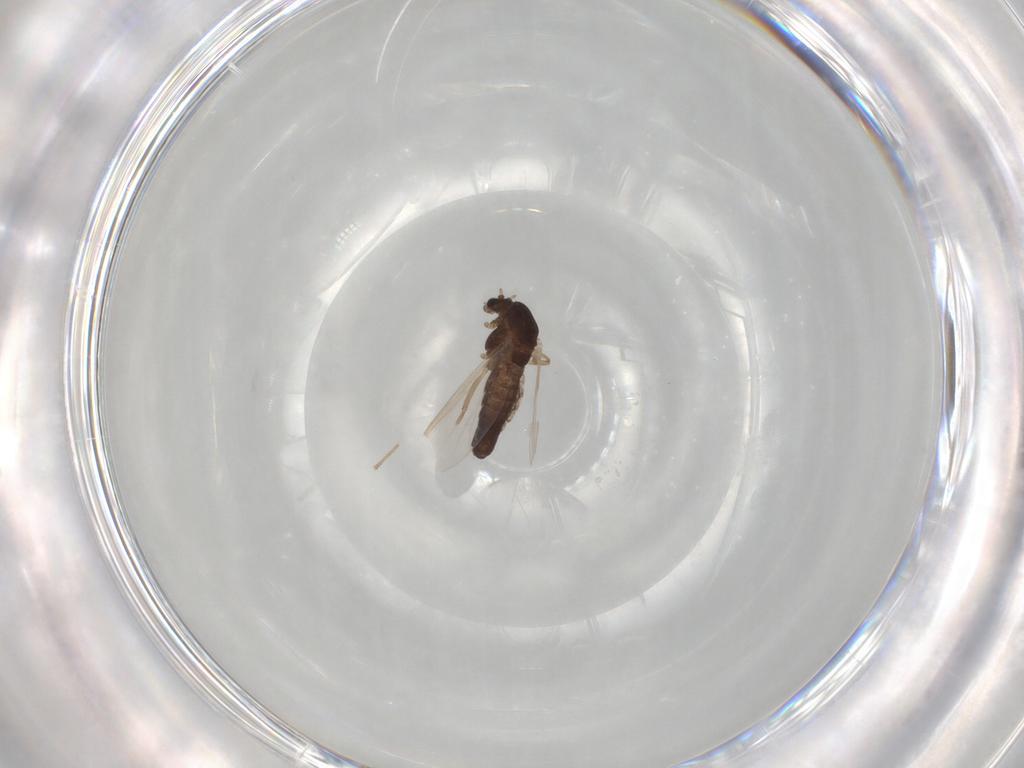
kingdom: Animalia
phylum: Arthropoda
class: Insecta
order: Diptera
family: Chironomidae
